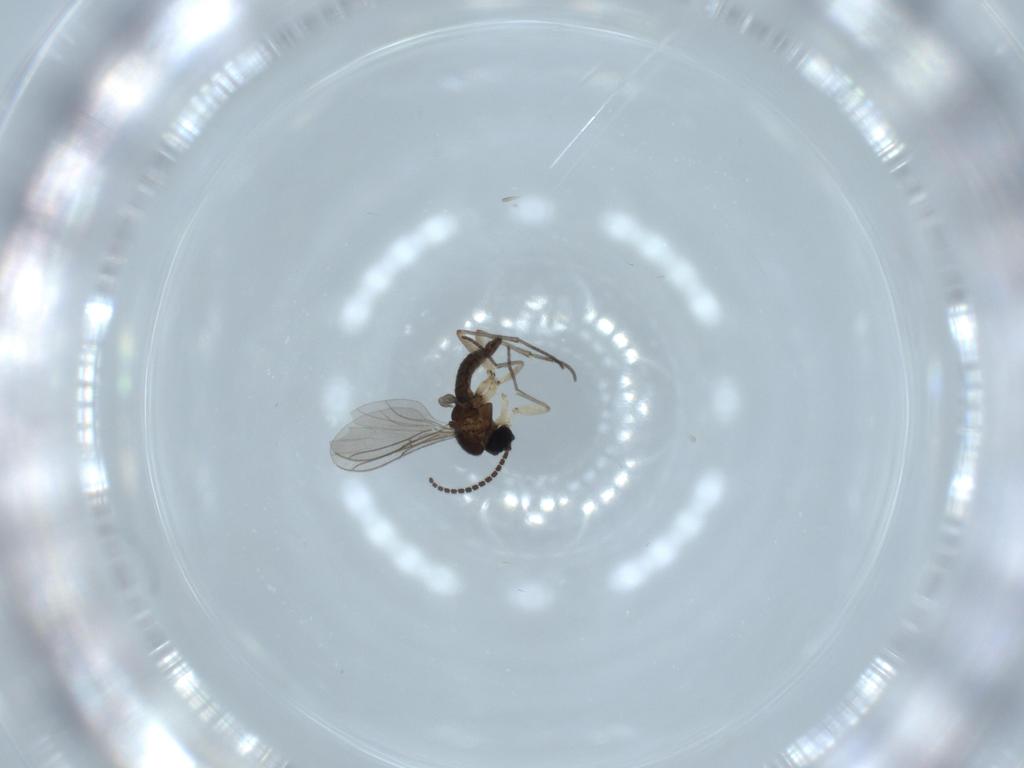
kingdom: Animalia
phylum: Arthropoda
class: Insecta
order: Diptera
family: Sciaridae
